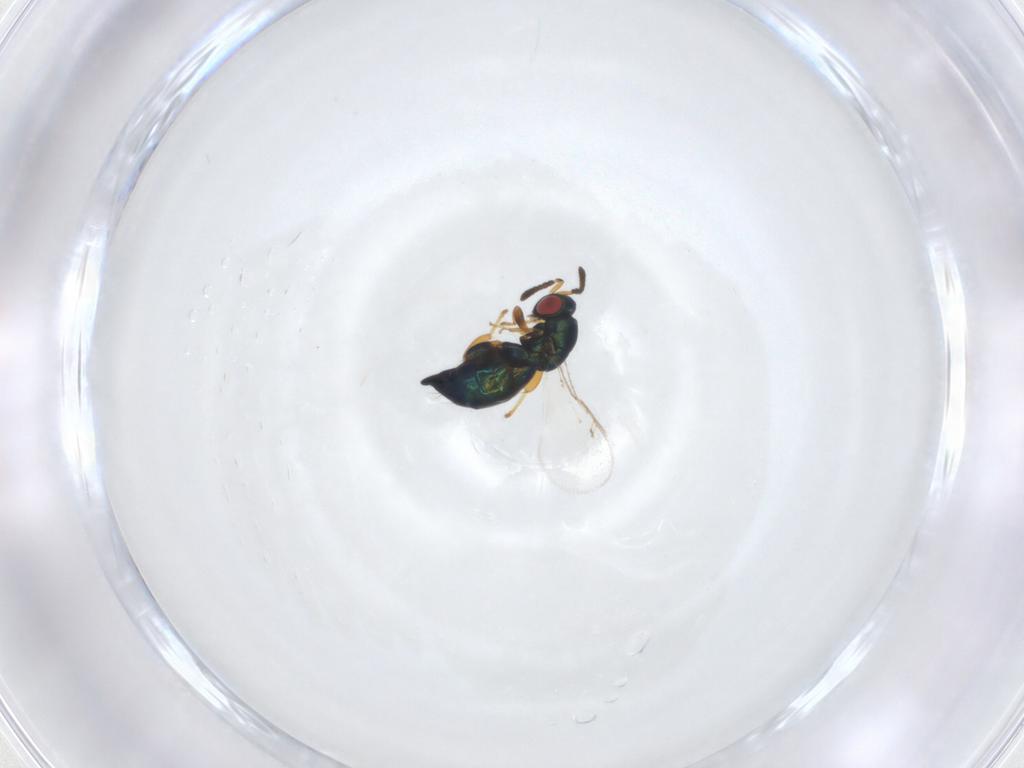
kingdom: Animalia
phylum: Arthropoda
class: Insecta
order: Hymenoptera
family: Pteromalidae
